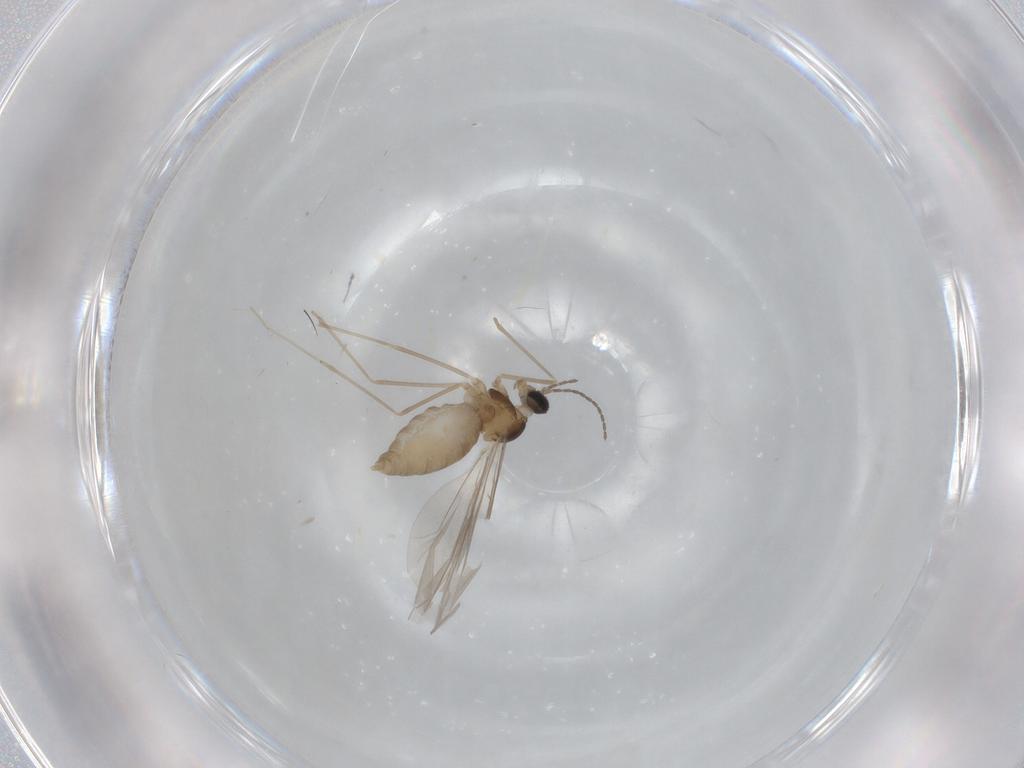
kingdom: Animalia
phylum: Arthropoda
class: Insecta
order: Diptera
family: Cecidomyiidae
